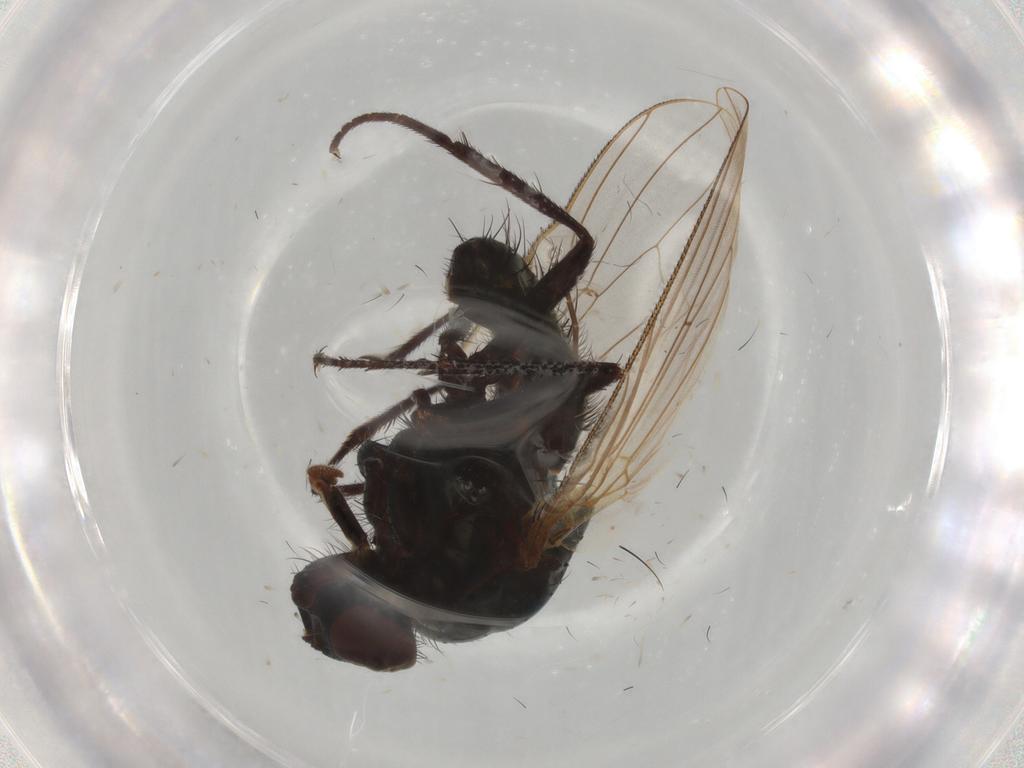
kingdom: Animalia
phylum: Arthropoda
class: Insecta
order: Diptera
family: Anthomyiidae
